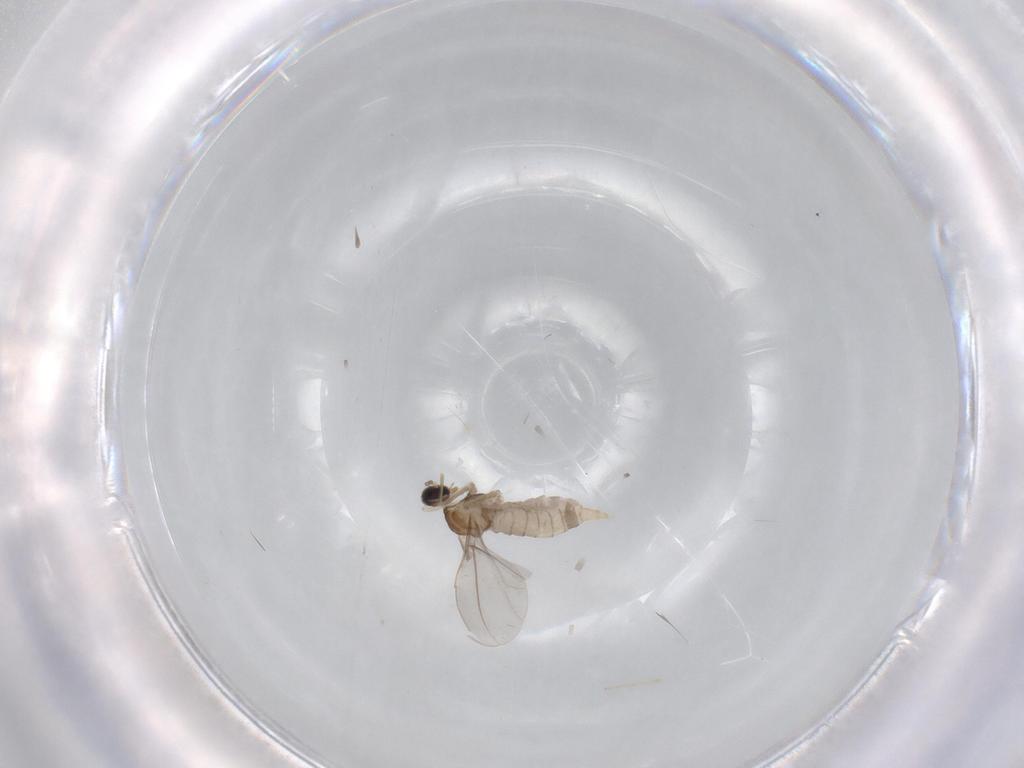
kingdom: Animalia
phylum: Arthropoda
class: Insecta
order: Diptera
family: Cecidomyiidae
